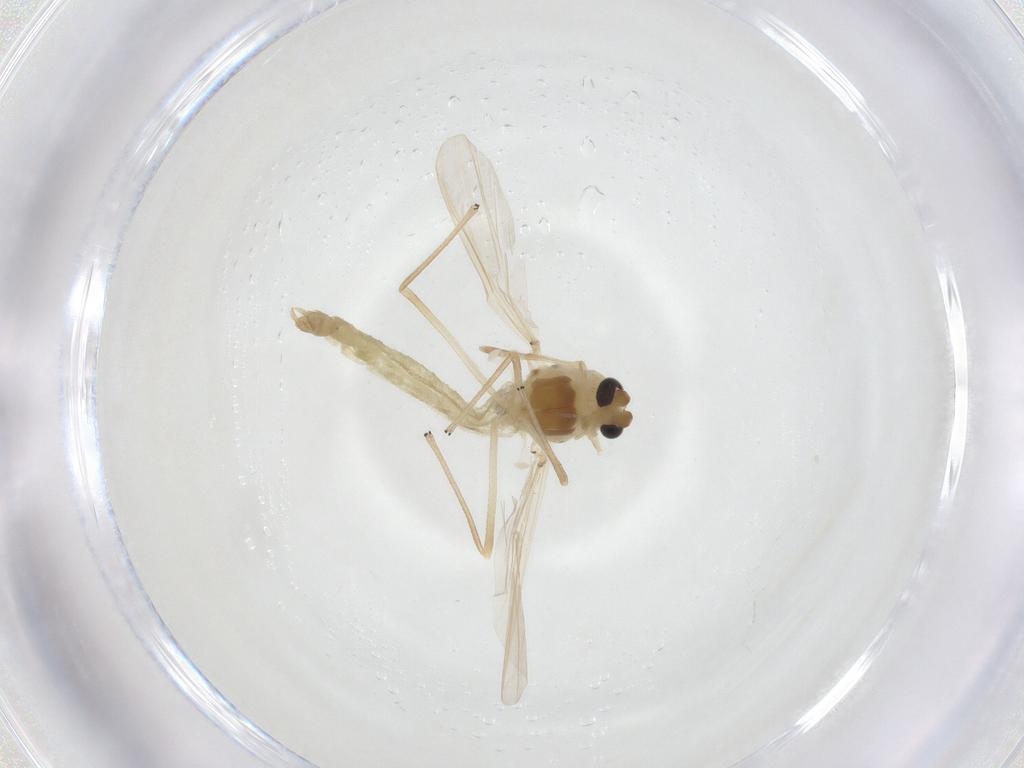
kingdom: Animalia
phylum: Arthropoda
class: Insecta
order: Diptera
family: Chironomidae
